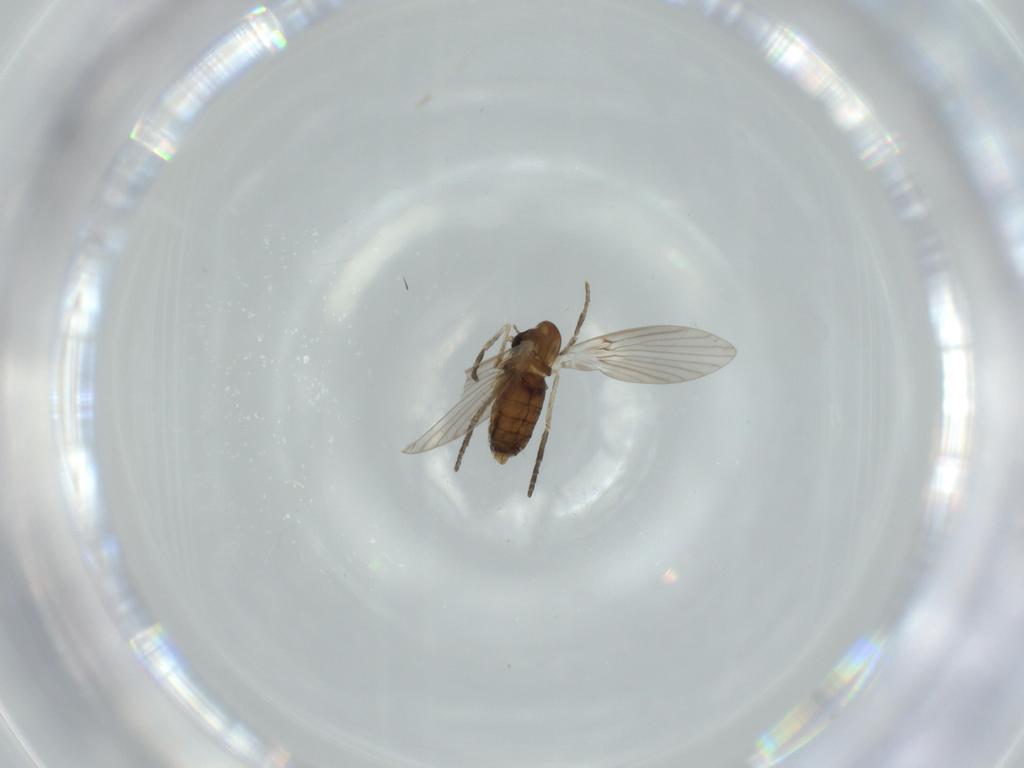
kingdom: Animalia
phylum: Arthropoda
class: Insecta
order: Diptera
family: Cecidomyiidae
